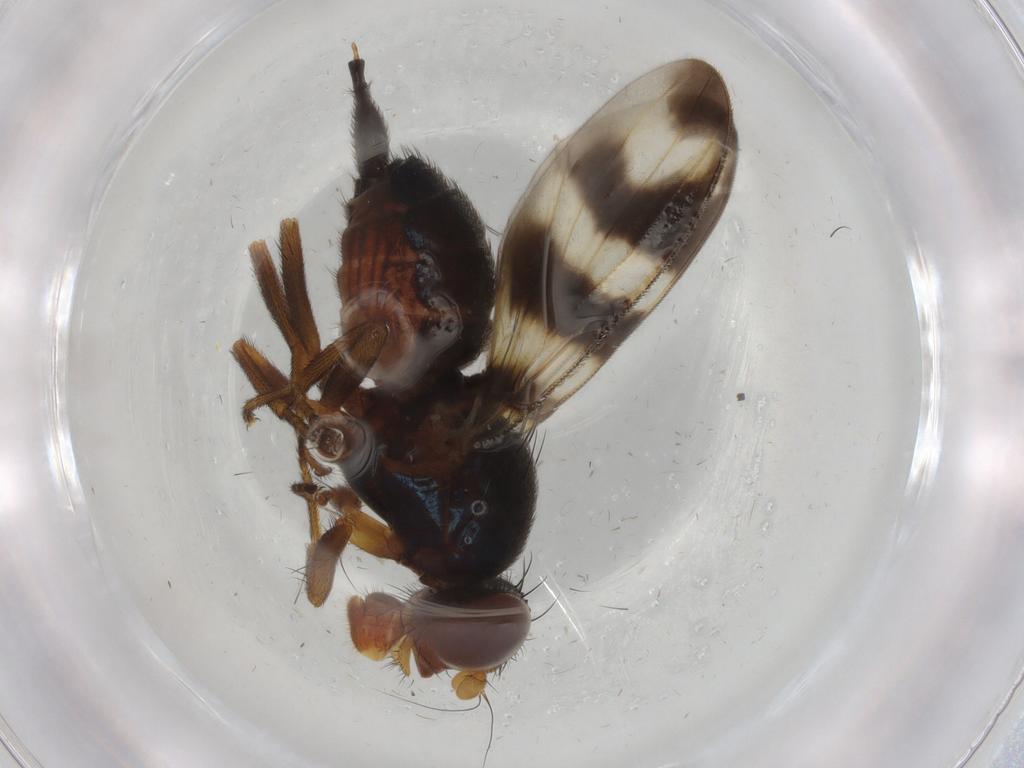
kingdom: Animalia
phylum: Arthropoda
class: Insecta
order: Diptera
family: Ulidiidae
